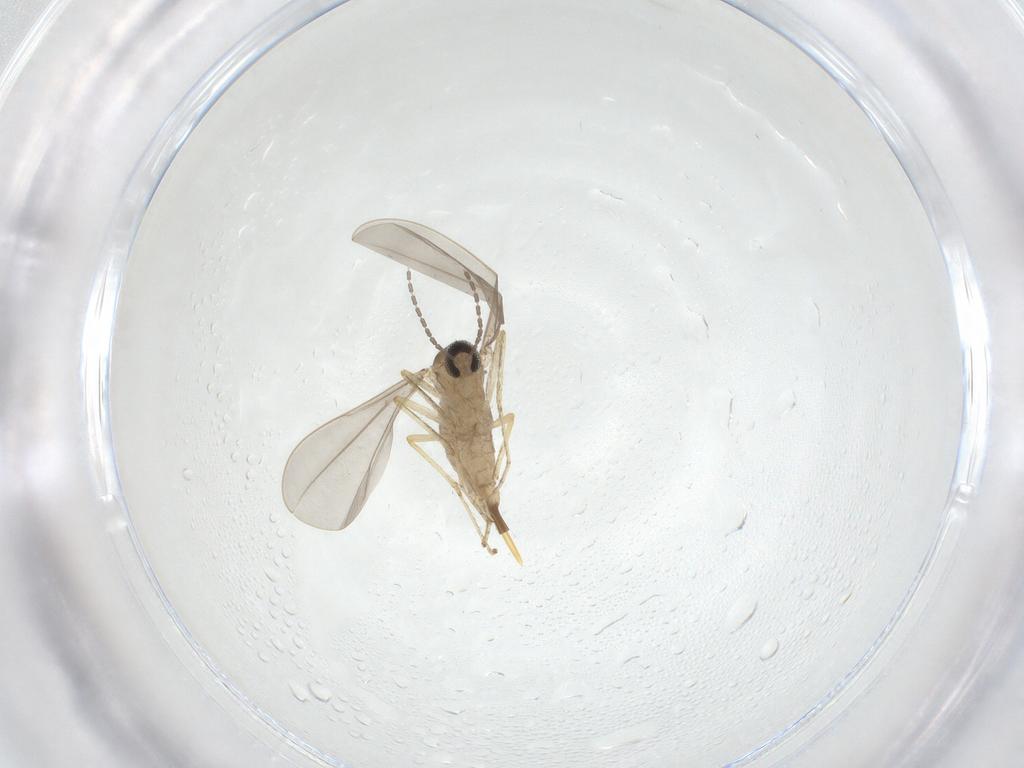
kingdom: Animalia
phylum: Arthropoda
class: Insecta
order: Diptera
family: Cecidomyiidae
